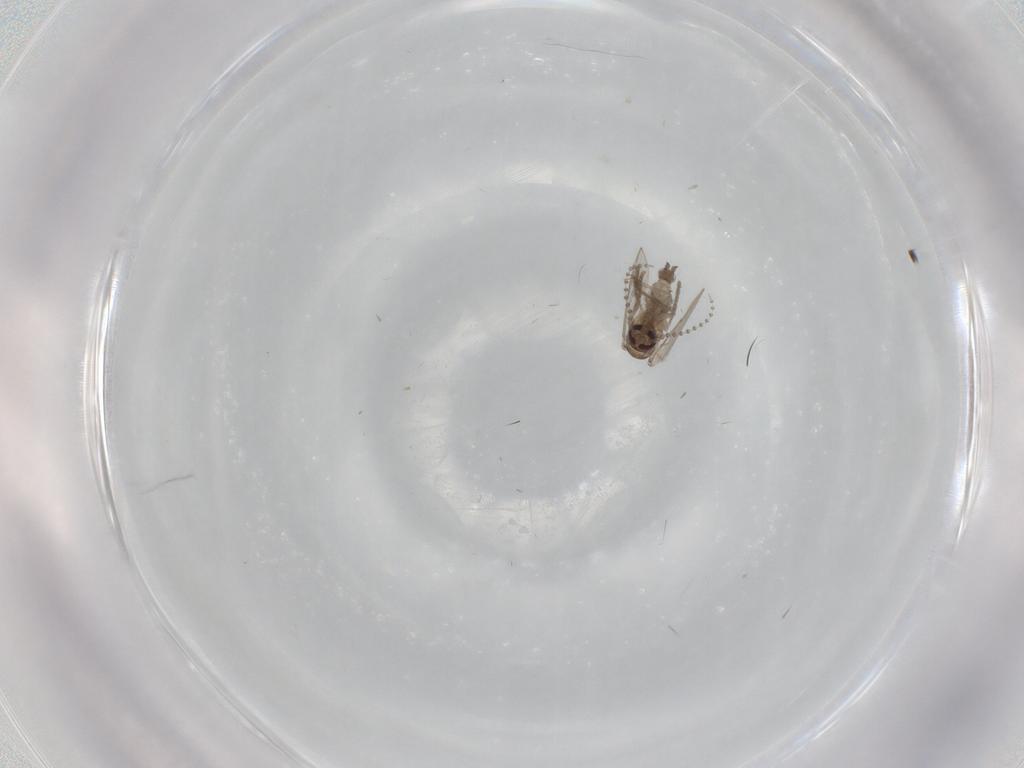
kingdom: Animalia
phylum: Arthropoda
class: Insecta
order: Diptera
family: Psychodidae
